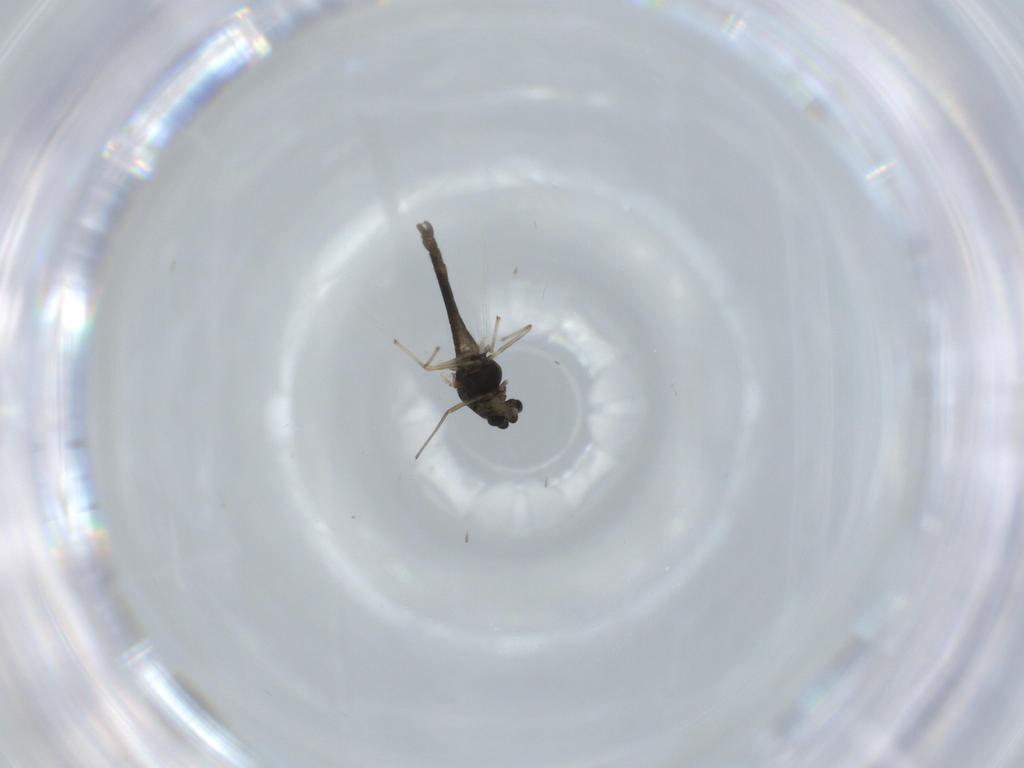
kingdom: Animalia
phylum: Arthropoda
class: Insecta
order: Diptera
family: Chironomidae
